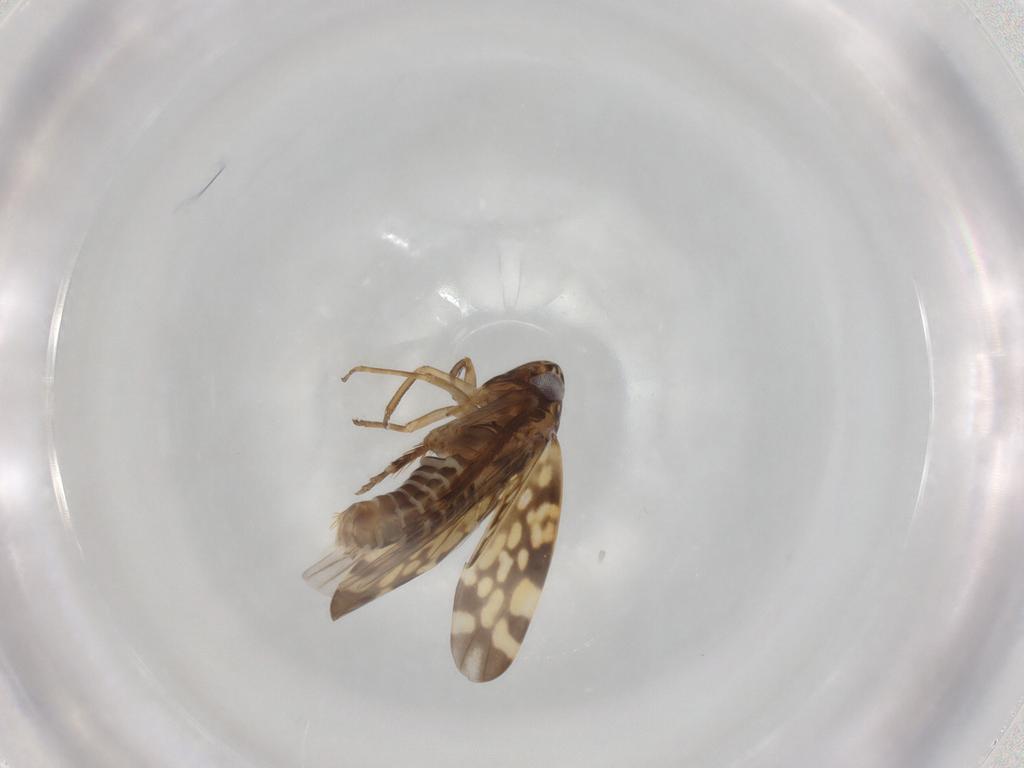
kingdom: Animalia
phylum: Arthropoda
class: Insecta
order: Hemiptera
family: Cicadellidae
